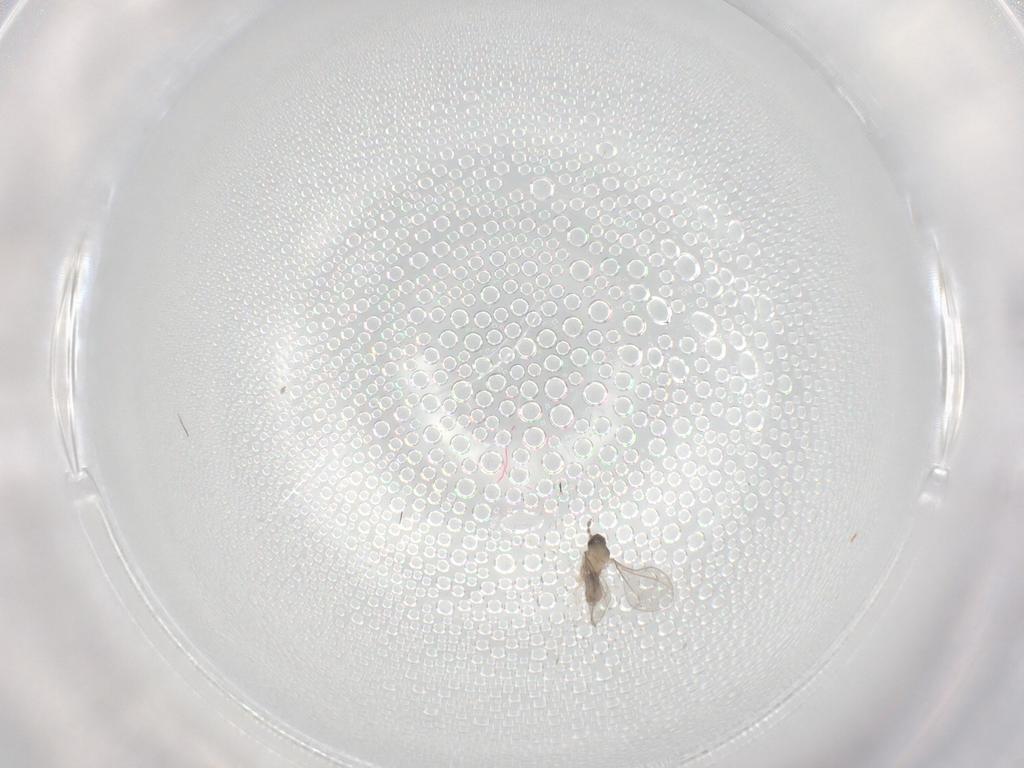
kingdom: Animalia
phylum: Arthropoda
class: Insecta
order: Diptera
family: Cecidomyiidae
